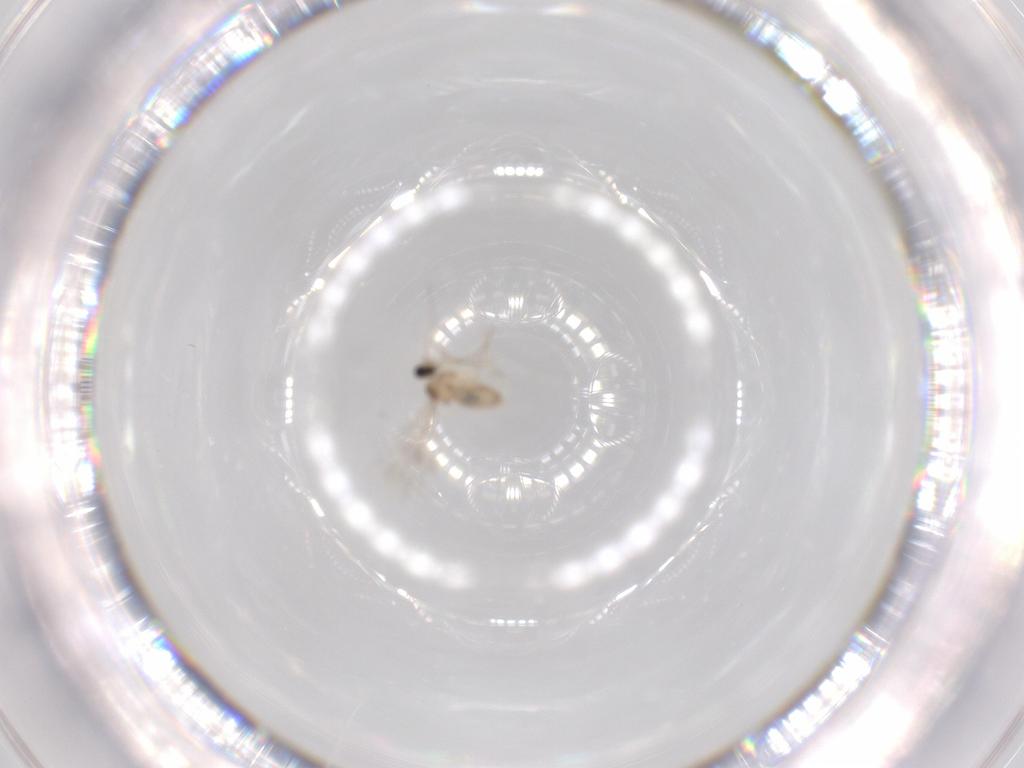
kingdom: Animalia
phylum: Arthropoda
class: Insecta
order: Diptera
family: Cecidomyiidae
